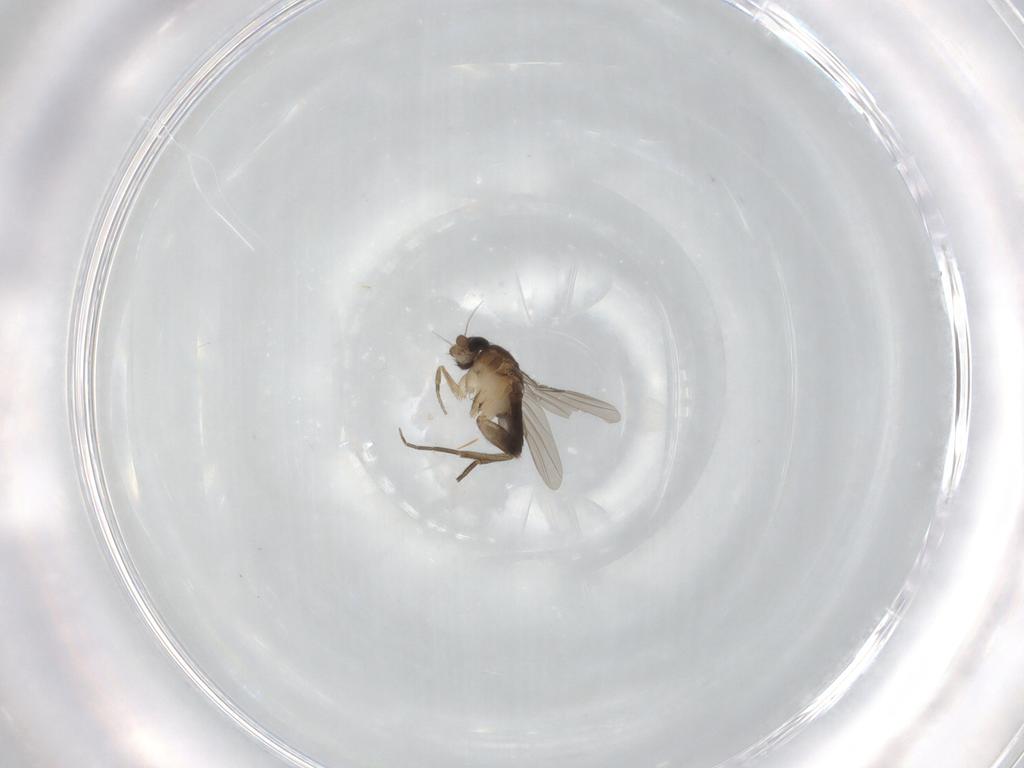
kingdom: Animalia
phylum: Arthropoda
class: Insecta
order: Diptera
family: Phoridae
